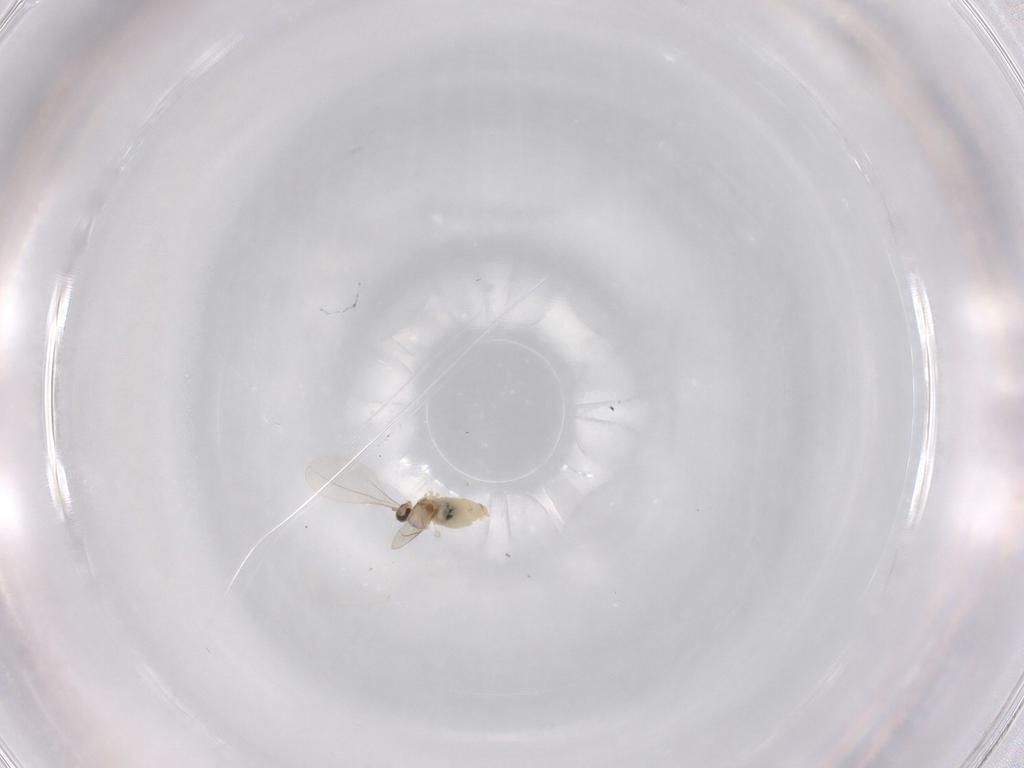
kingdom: Animalia
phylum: Arthropoda
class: Insecta
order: Diptera
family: Cecidomyiidae
